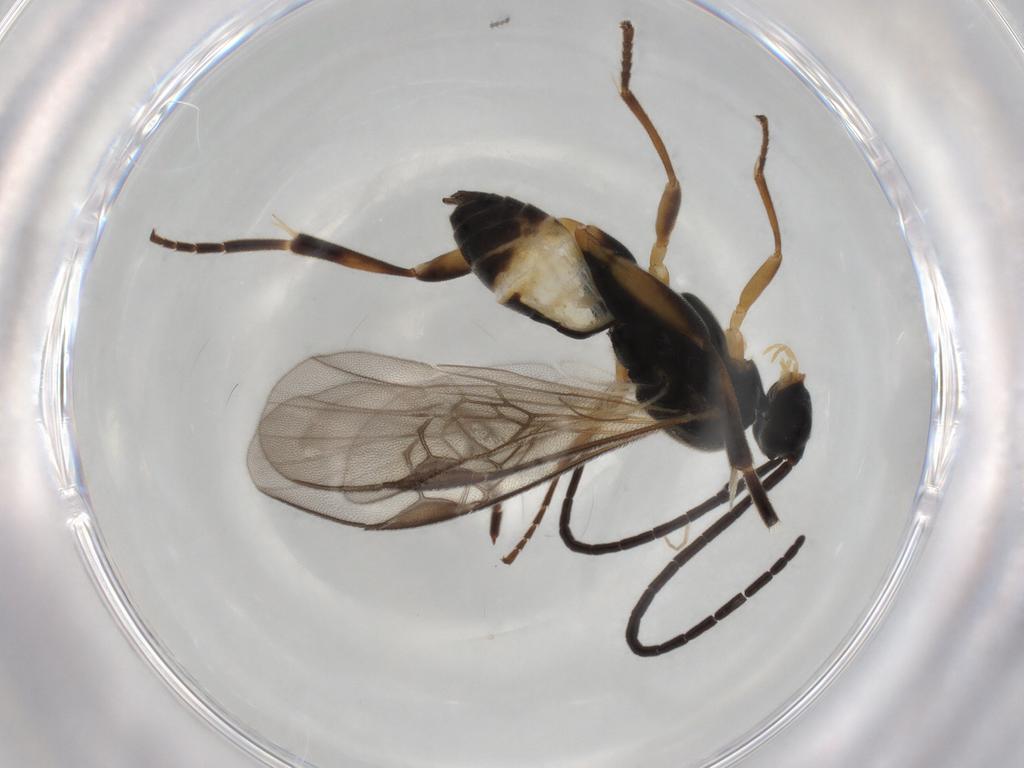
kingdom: Animalia
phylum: Arthropoda
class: Insecta
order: Hymenoptera
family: Braconidae
